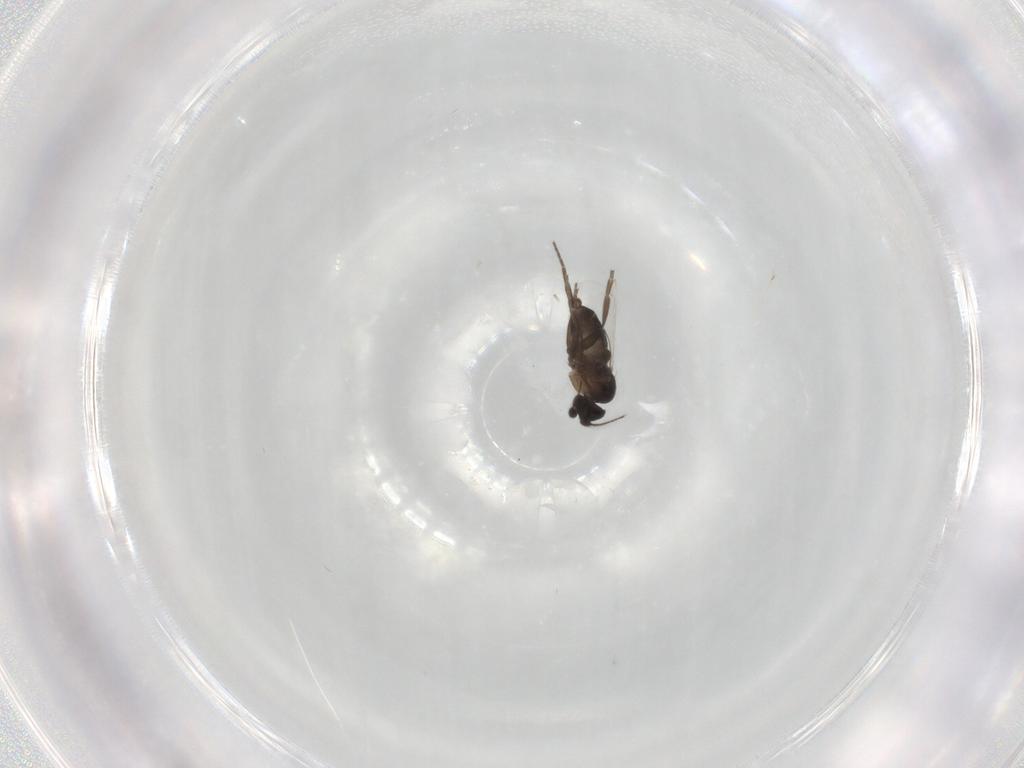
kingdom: Animalia
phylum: Arthropoda
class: Insecta
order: Diptera
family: Drosophilidae
